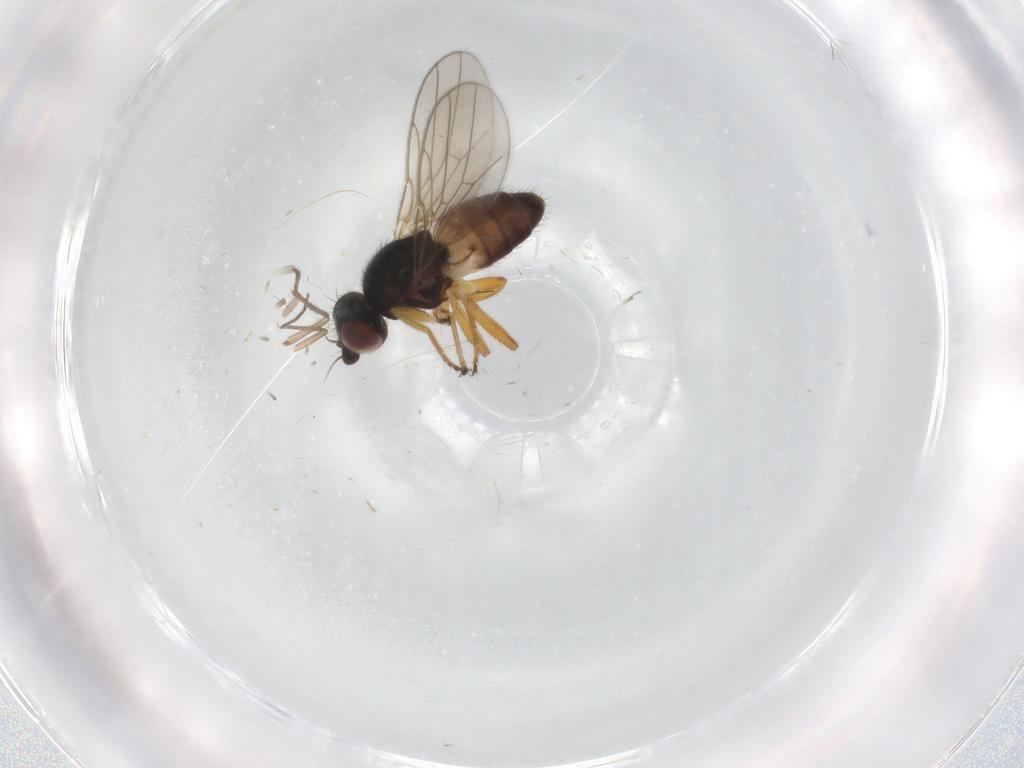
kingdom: Animalia
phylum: Arthropoda
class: Insecta
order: Diptera
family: Chloropidae
